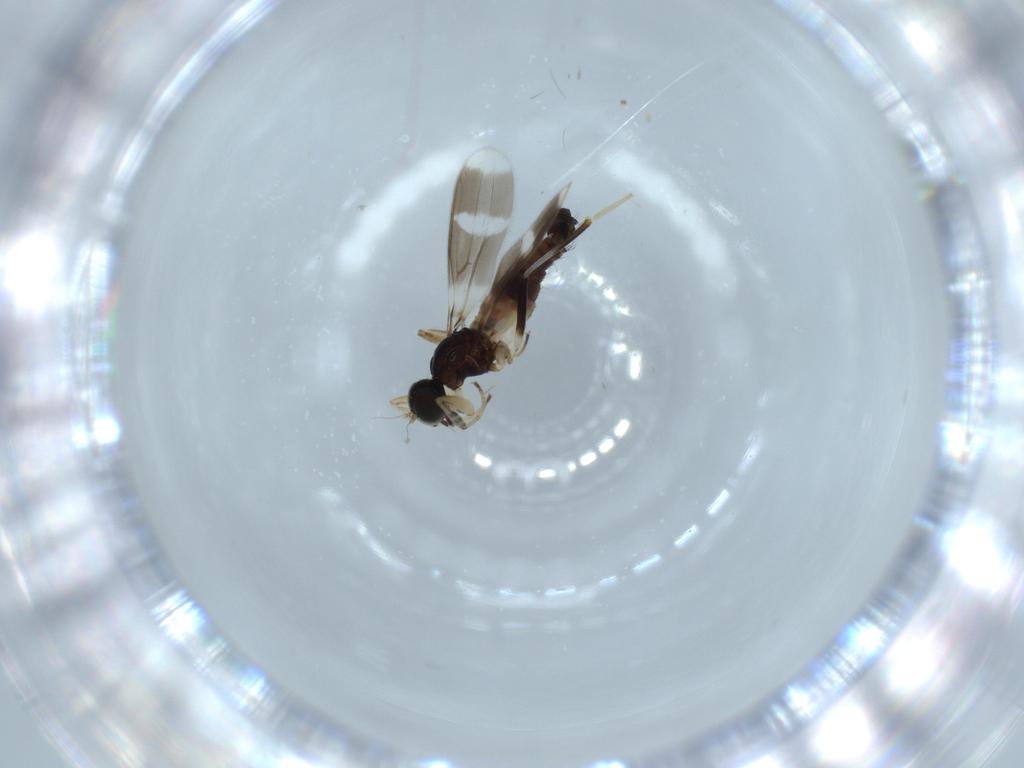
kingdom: Animalia
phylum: Arthropoda
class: Insecta
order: Diptera
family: Hybotidae
